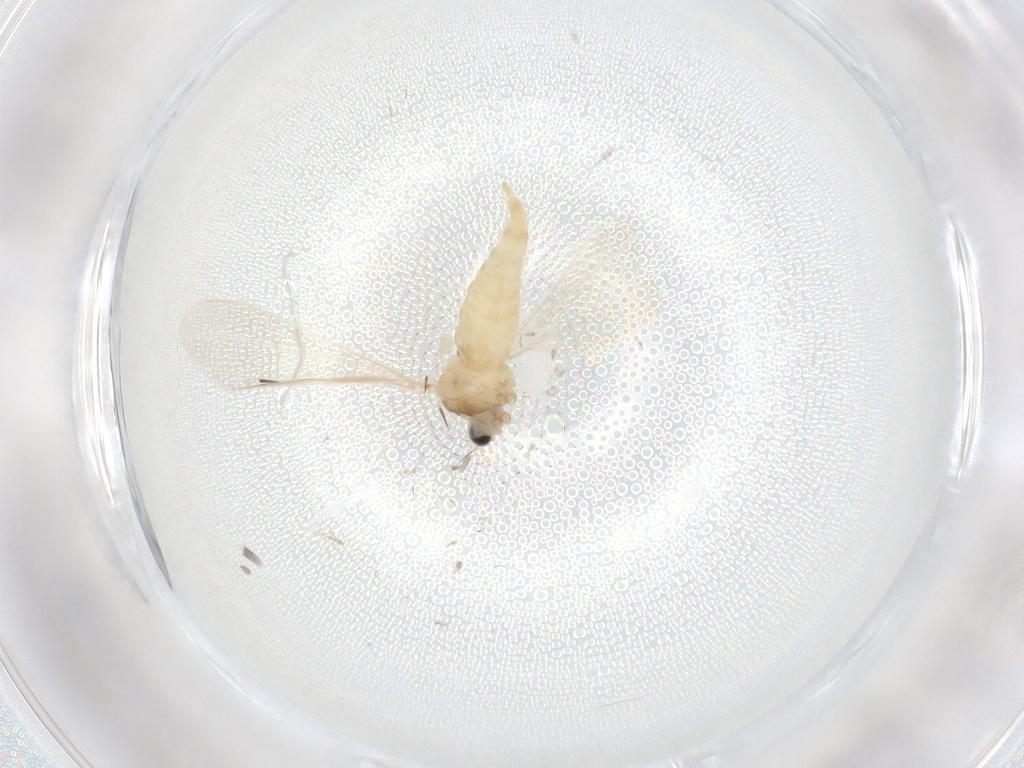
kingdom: Animalia
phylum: Arthropoda
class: Insecta
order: Diptera
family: Cecidomyiidae
